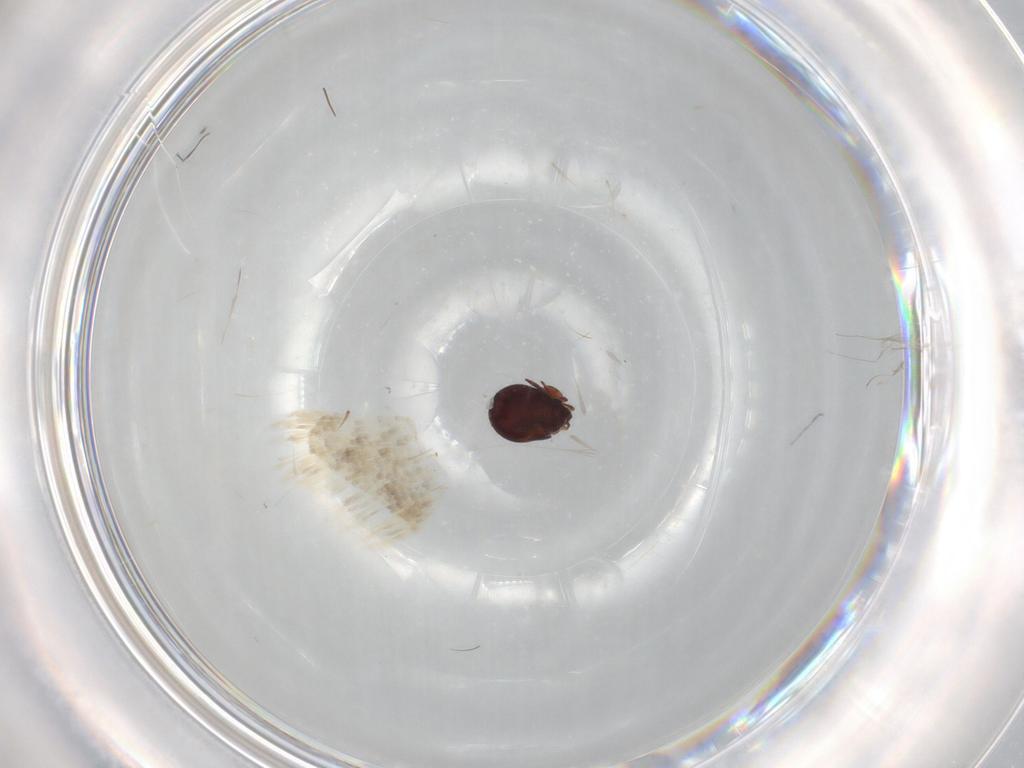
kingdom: Animalia
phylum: Arthropoda
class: Arachnida
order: Sarcoptiformes
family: Humerobatidae
